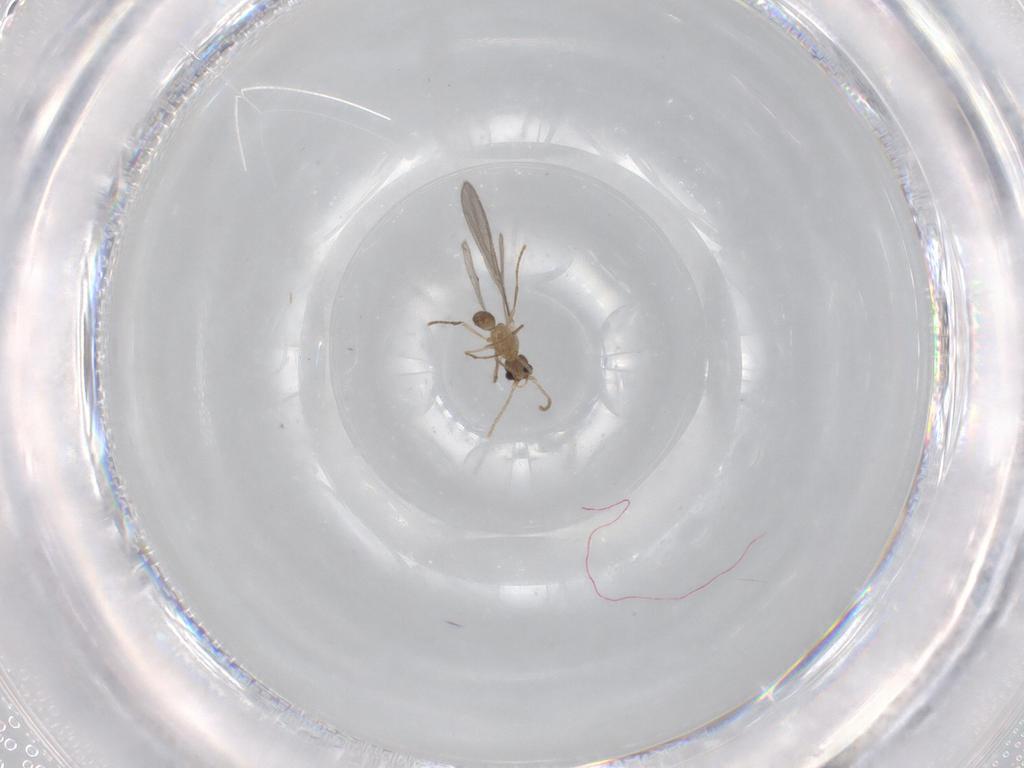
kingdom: Animalia
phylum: Arthropoda
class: Insecta
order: Hymenoptera
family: Formicidae
